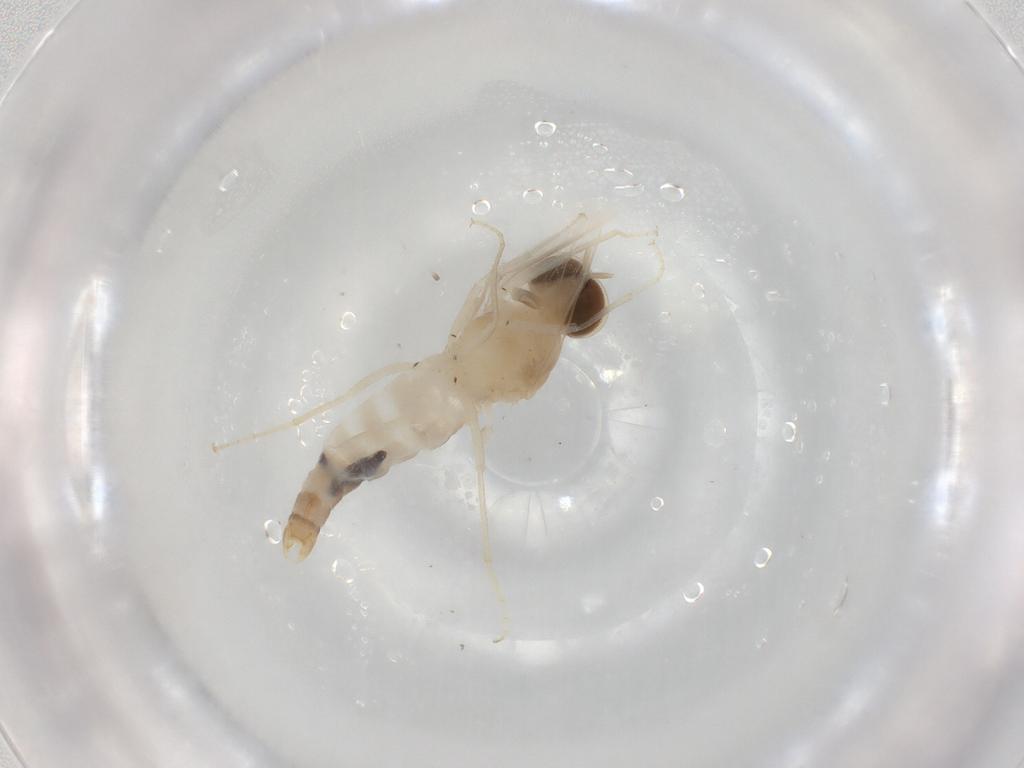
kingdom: Animalia
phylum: Arthropoda
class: Insecta
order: Diptera
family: Scenopinidae
